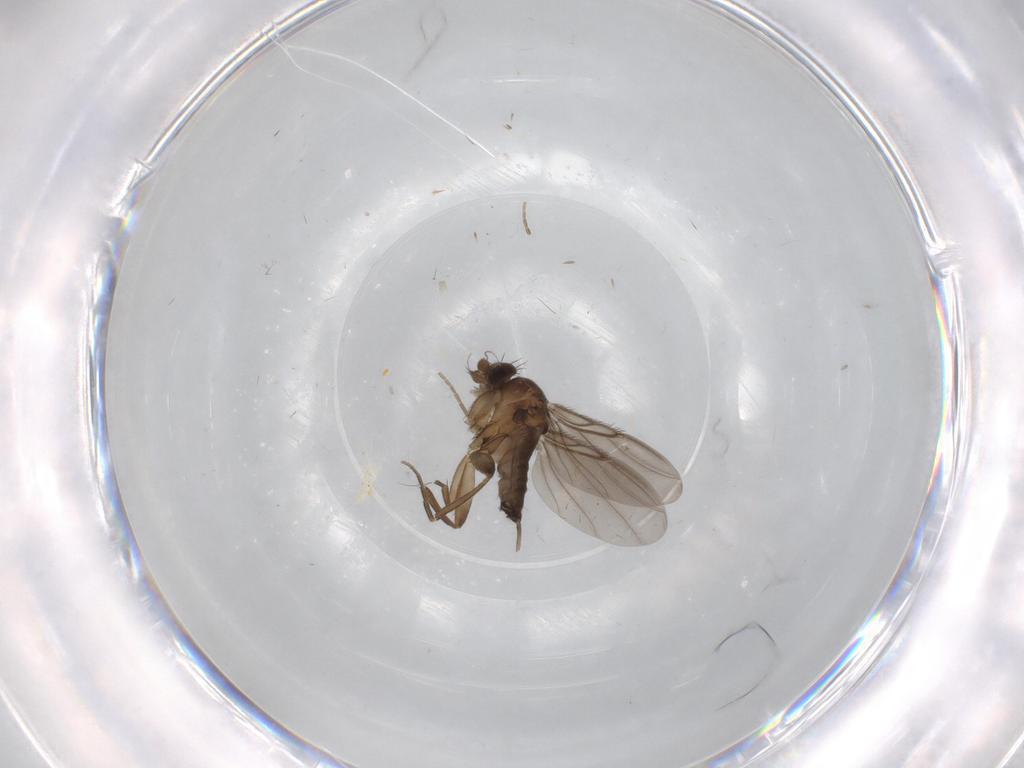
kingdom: Animalia
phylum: Arthropoda
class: Insecta
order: Diptera
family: Phoridae
